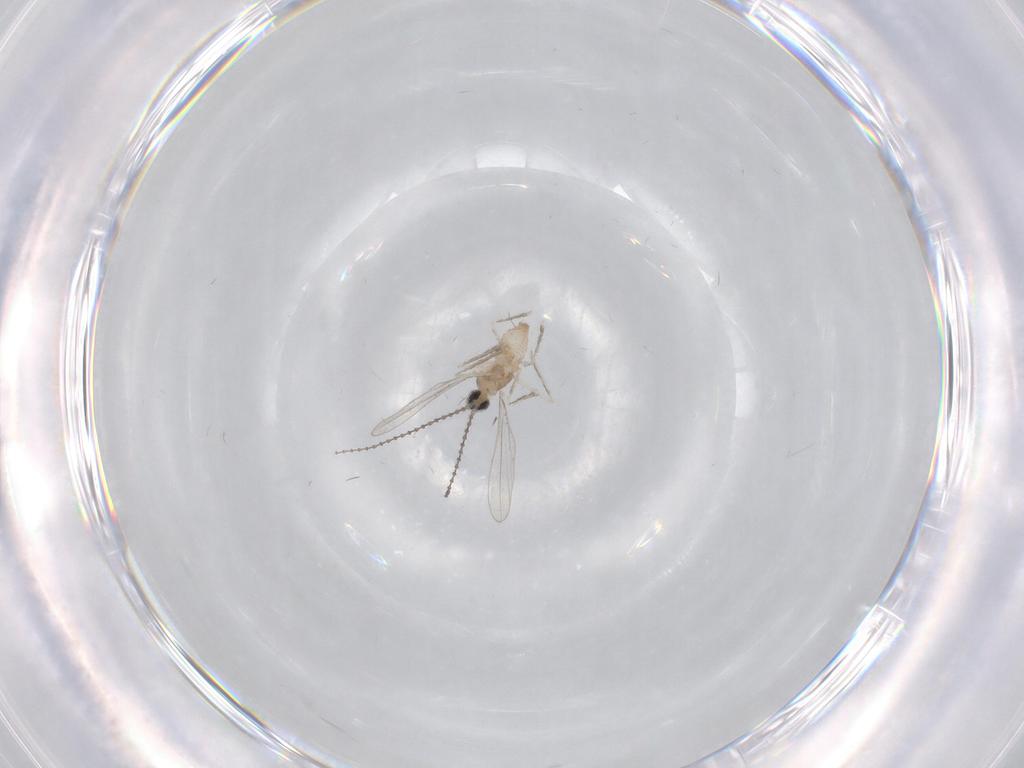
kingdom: Animalia
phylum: Arthropoda
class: Insecta
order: Diptera
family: Cecidomyiidae
